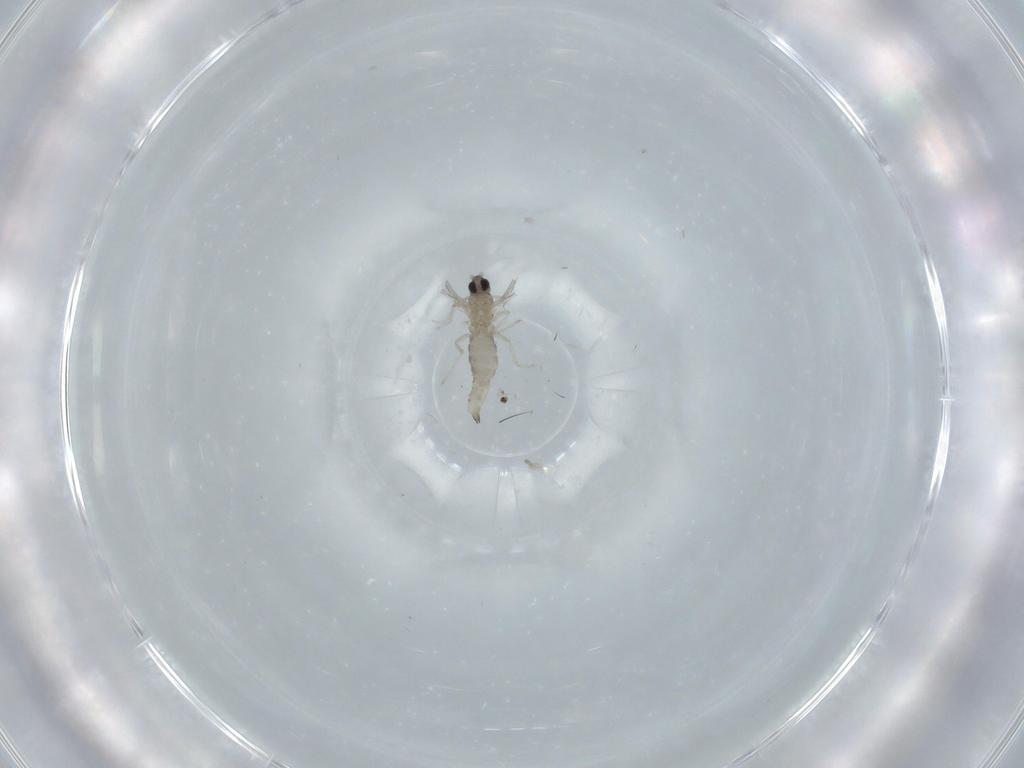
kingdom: Animalia
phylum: Arthropoda
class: Insecta
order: Diptera
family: Cecidomyiidae
